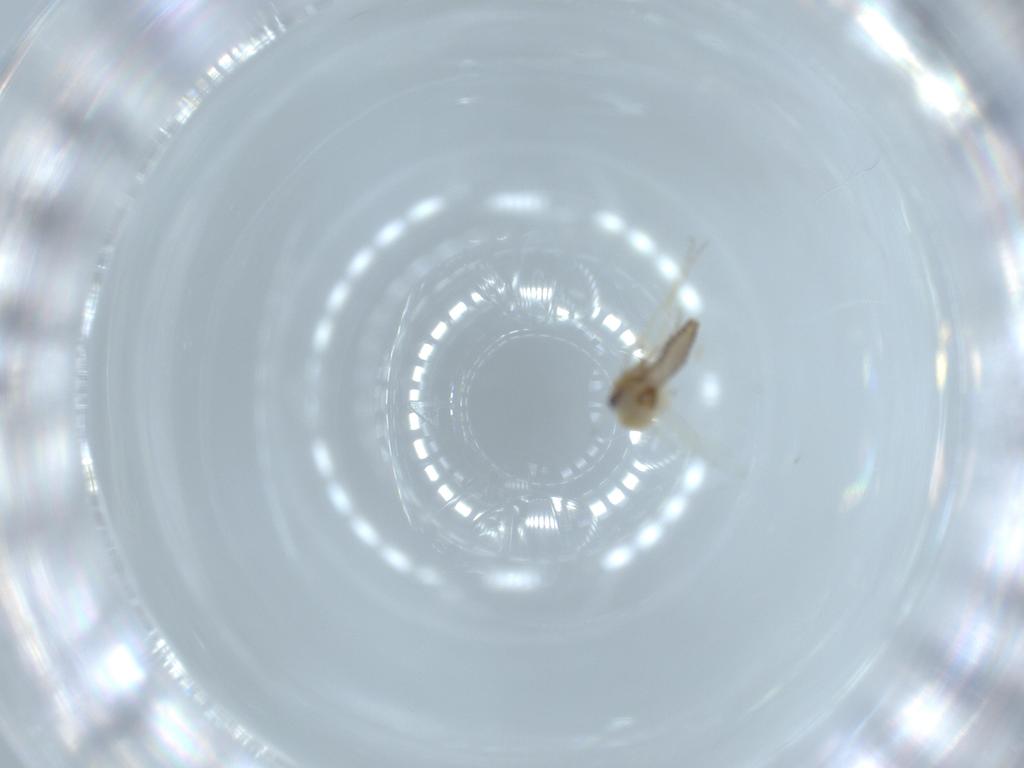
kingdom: Animalia
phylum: Arthropoda
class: Insecta
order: Diptera
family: Ceratopogonidae
